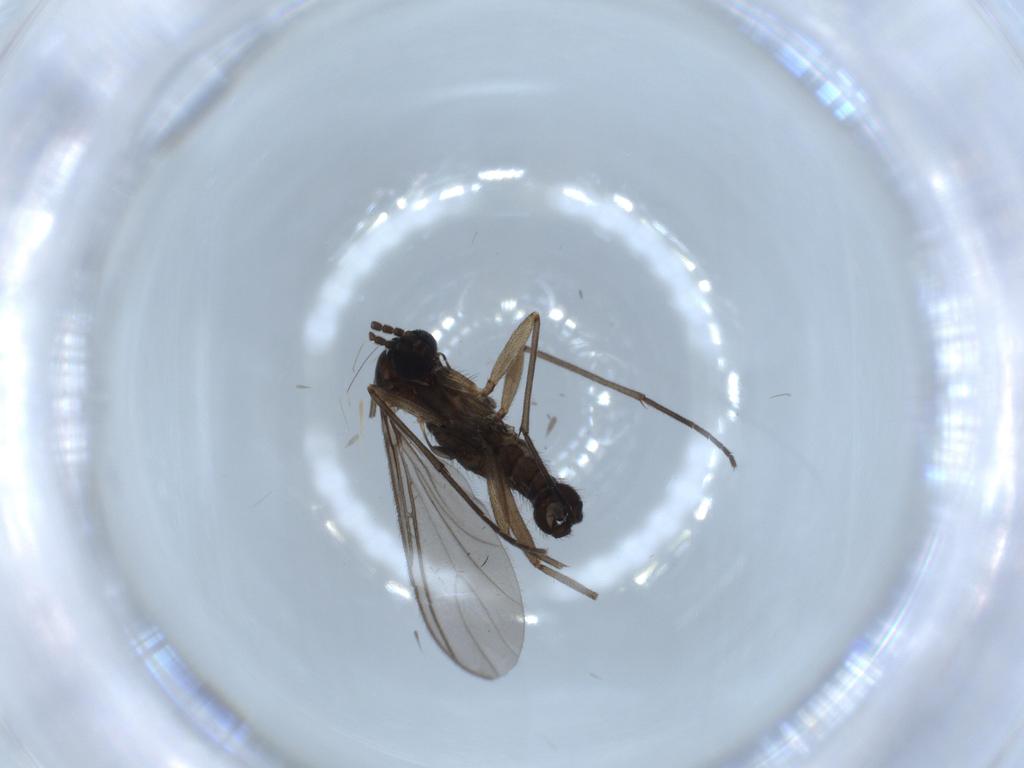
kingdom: Animalia
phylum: Arthropoda
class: Insecta
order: Diptera
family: Sciaridae
